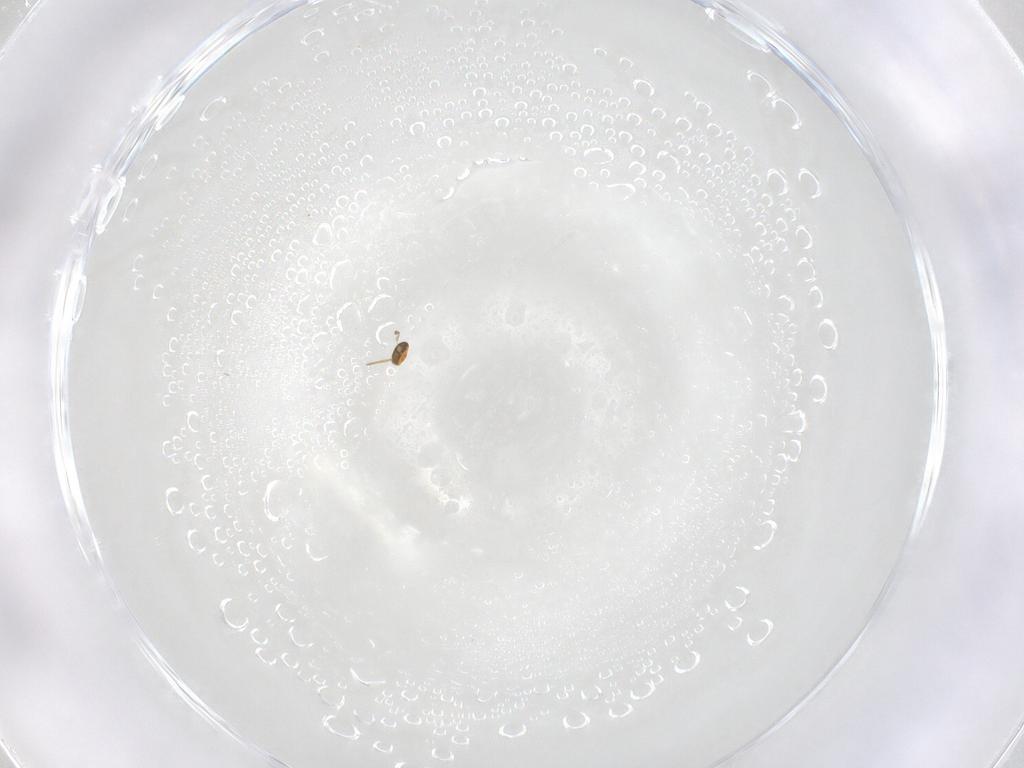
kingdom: Animalia
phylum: Arthropoda
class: Insecta
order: Hymenoptera
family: Aphelinidae
